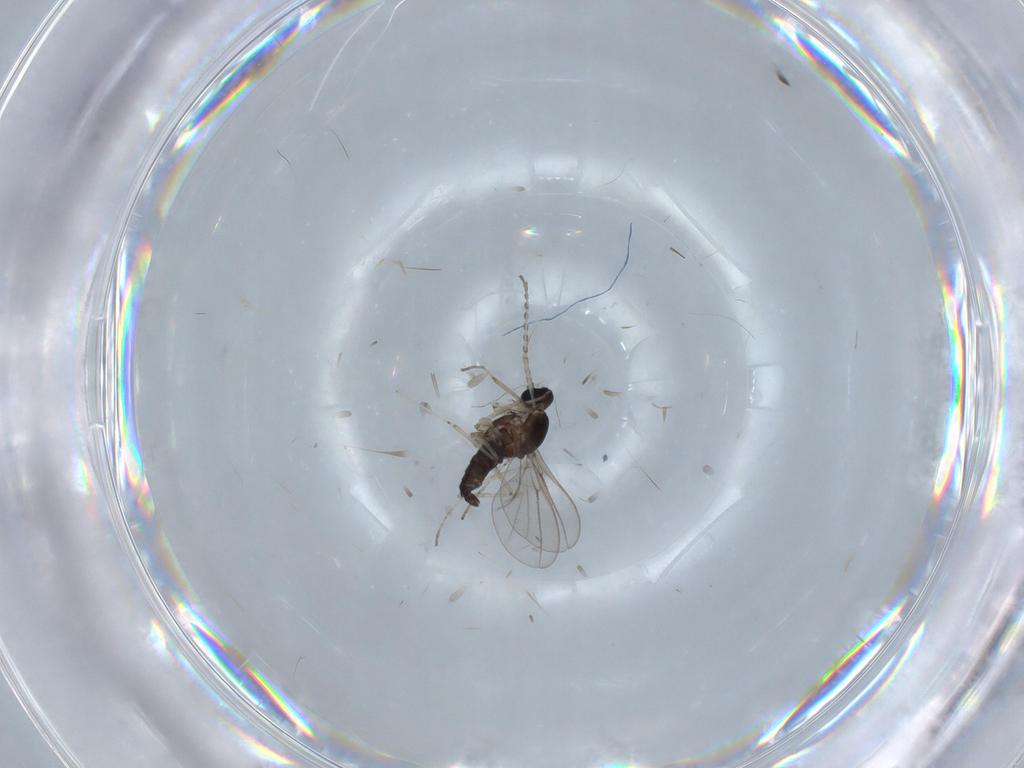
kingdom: Animalia
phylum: Arthropoda
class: Insecta
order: Diptera
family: Cecidomyiidae
